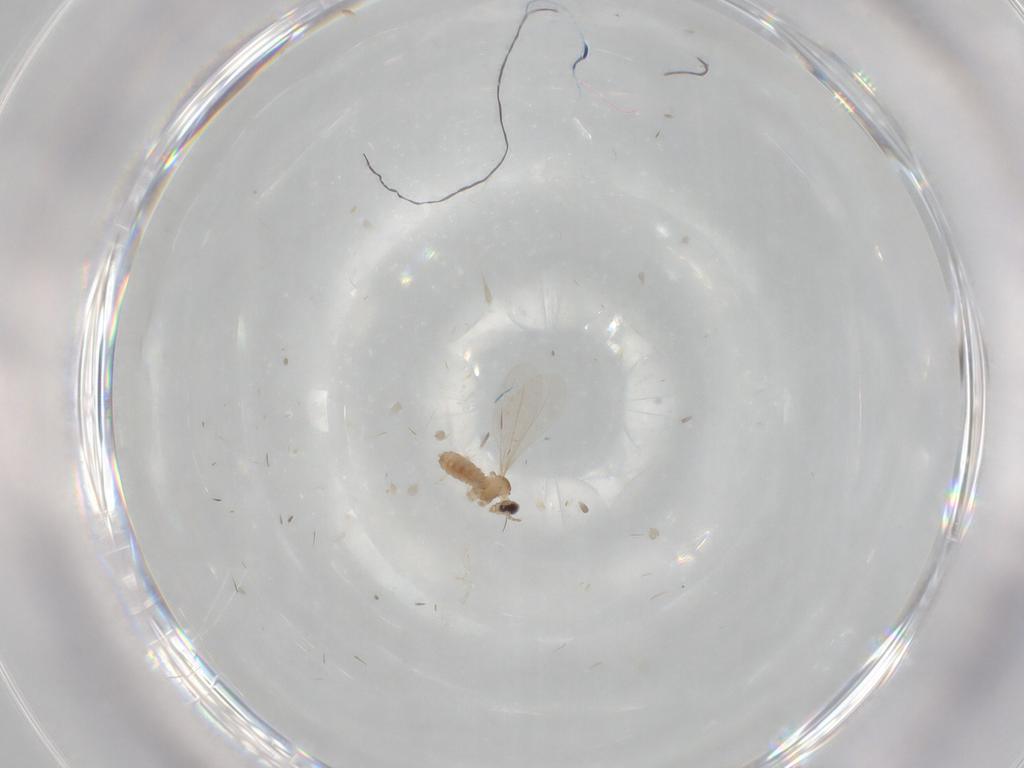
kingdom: Animalia
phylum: Arthropoda
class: Insecta
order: Diptera
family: Cecidomyiidae
